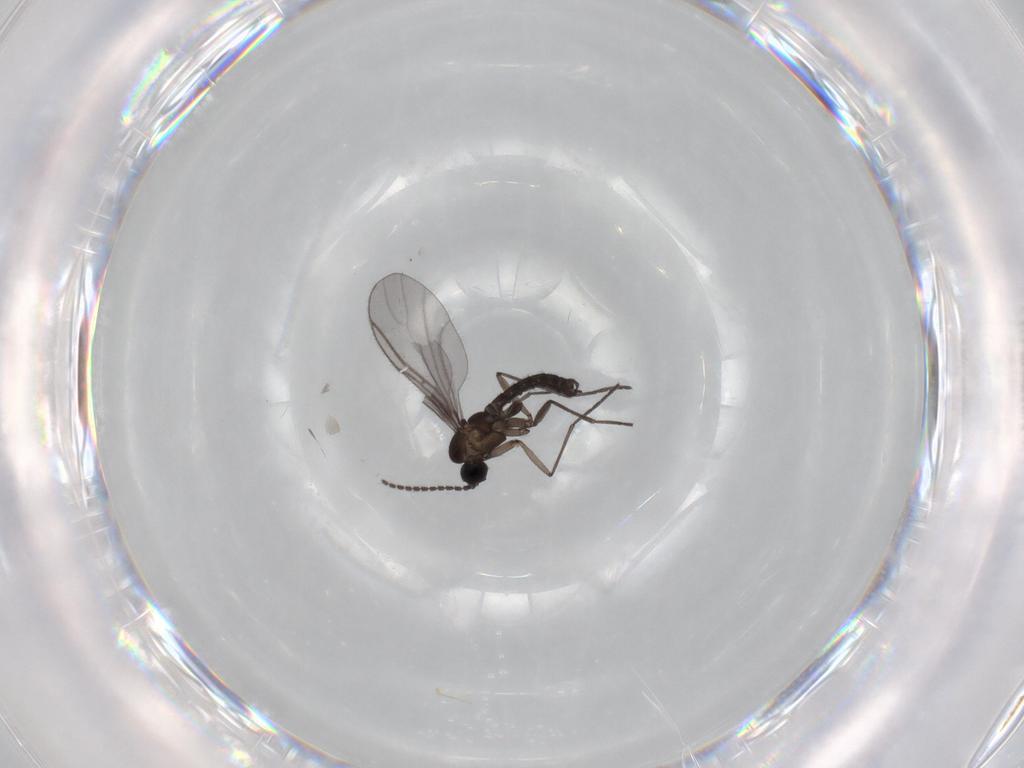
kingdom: Animalia
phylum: Arthropoda
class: Insecta
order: Diptera
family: Sciaridae
